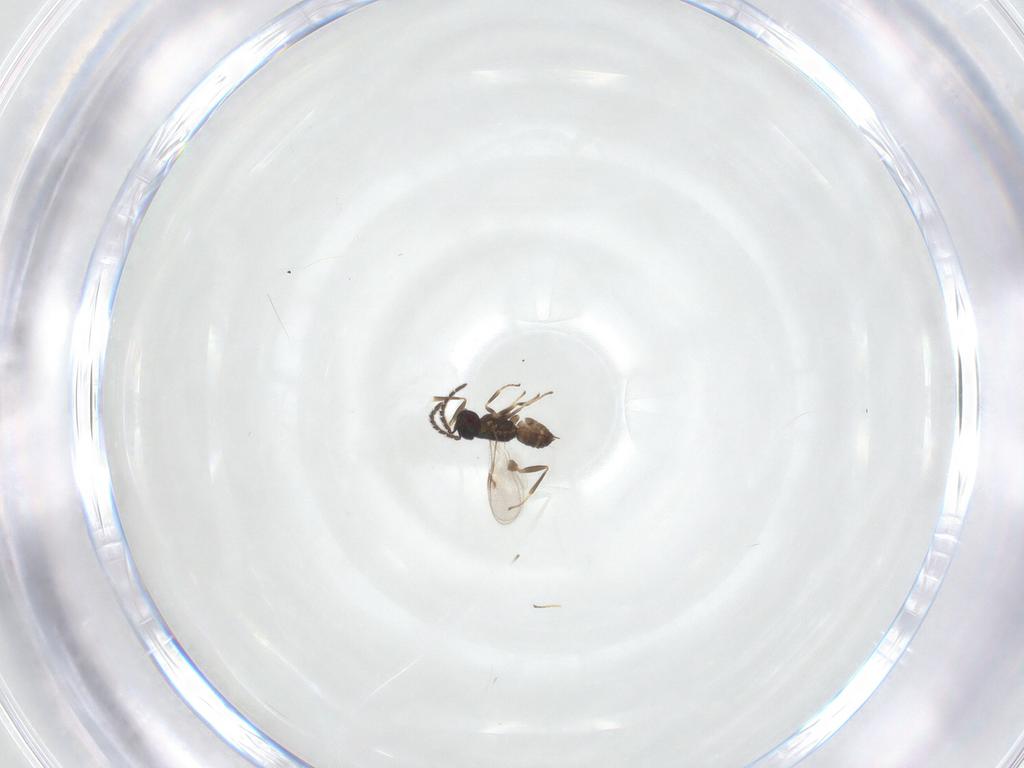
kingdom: Animalia
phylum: Arthropoda
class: Insecta
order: Hymenoptera
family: Encyrtidae
